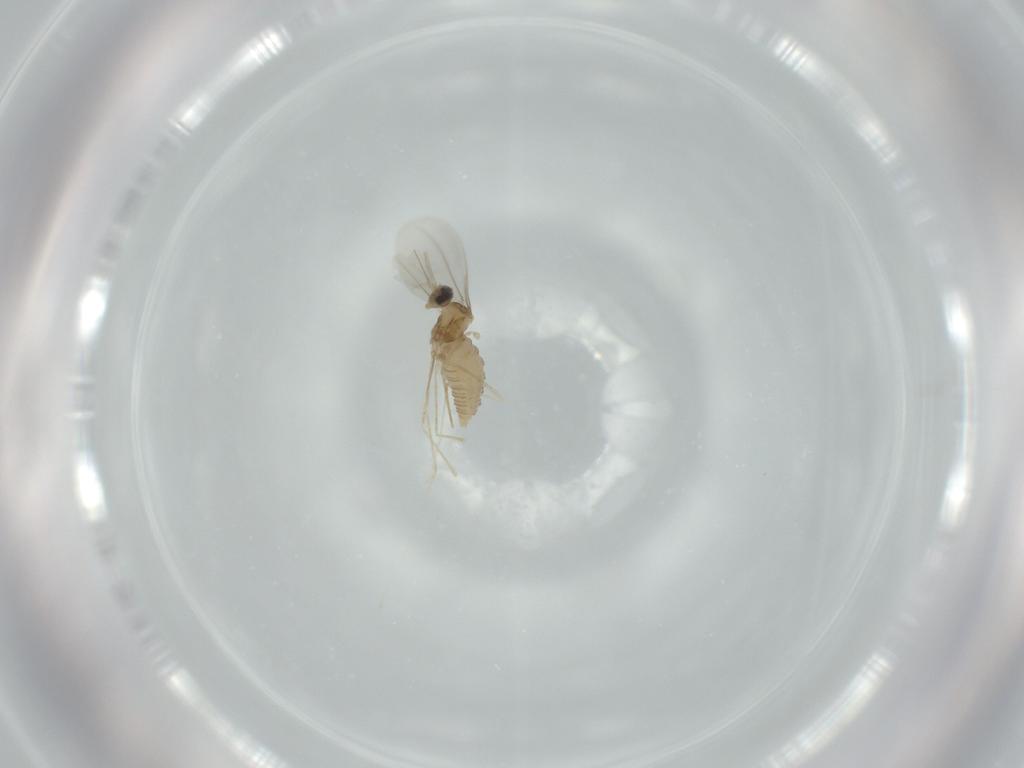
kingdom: Animalia
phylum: Arthropoda
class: Insecta
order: Diptera
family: Cecidomyiidae
